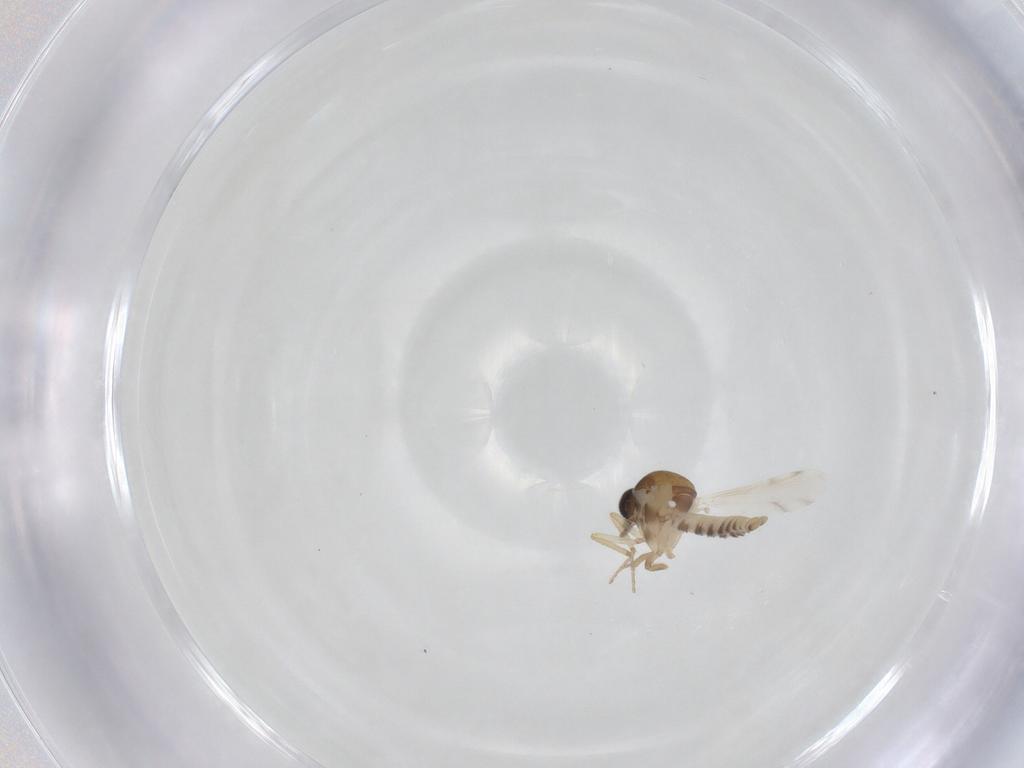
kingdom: Animalia
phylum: Arthropoda
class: Insecta
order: Diptera
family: Ceratopogonidae
